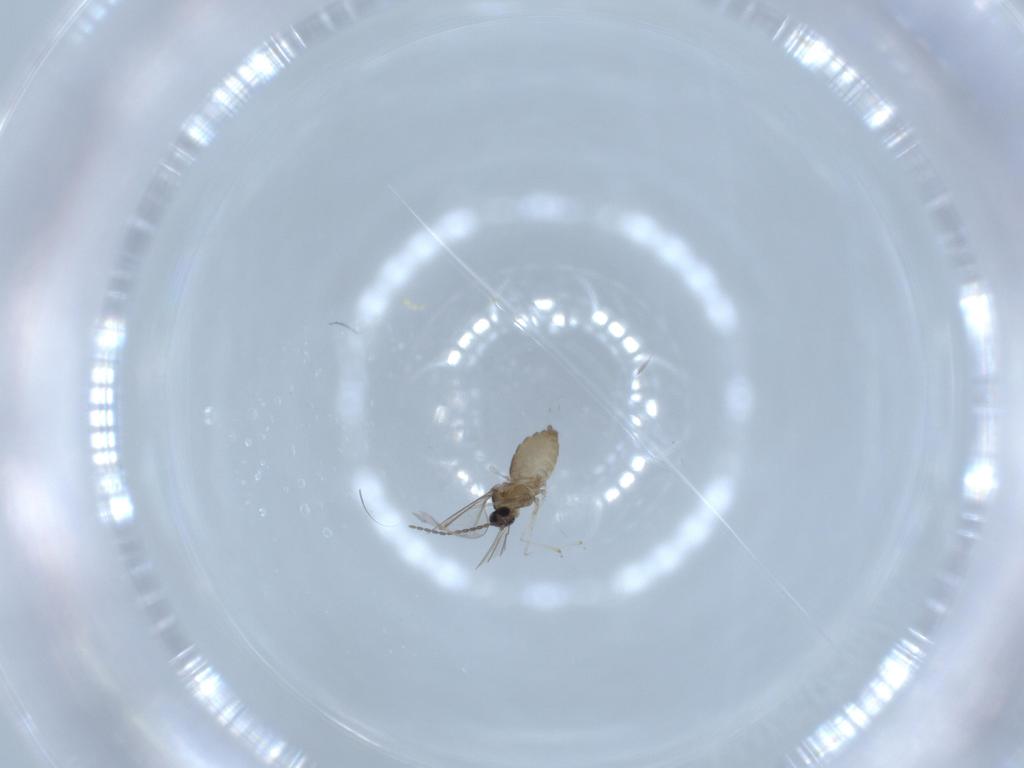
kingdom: Animalia
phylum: Arthropoda
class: Insecta
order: Diptera
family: Cecidomyiidae
